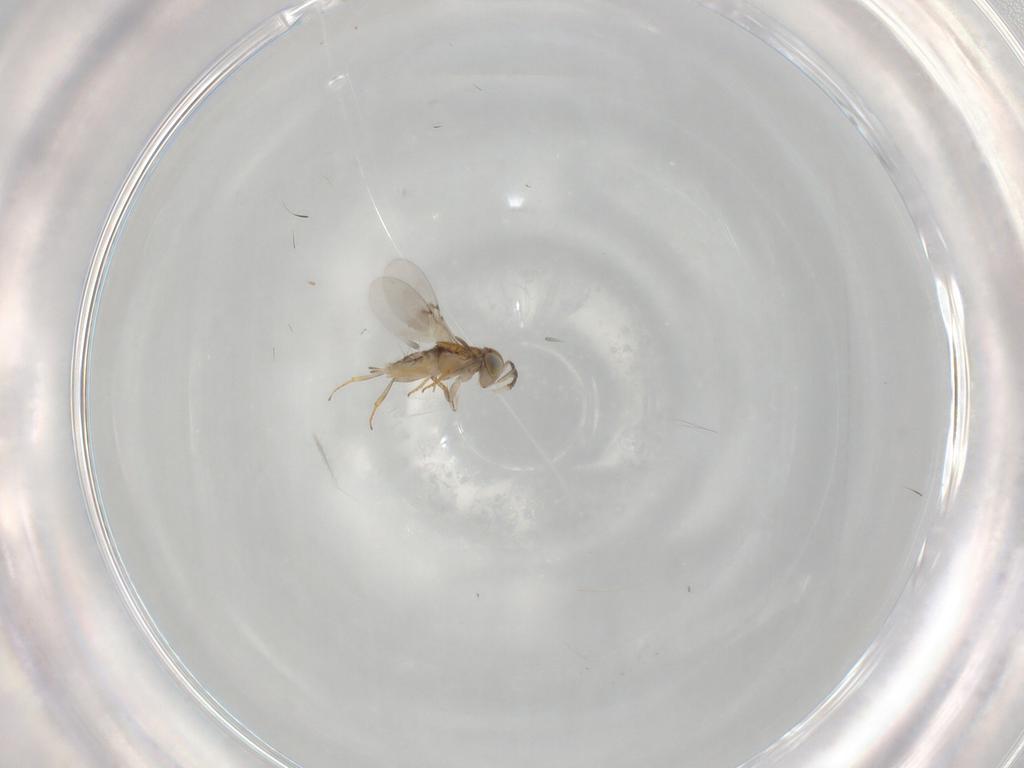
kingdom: Animalia
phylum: Arthropoda
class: Insecta
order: Hymenoptera
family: Encyrtidae
